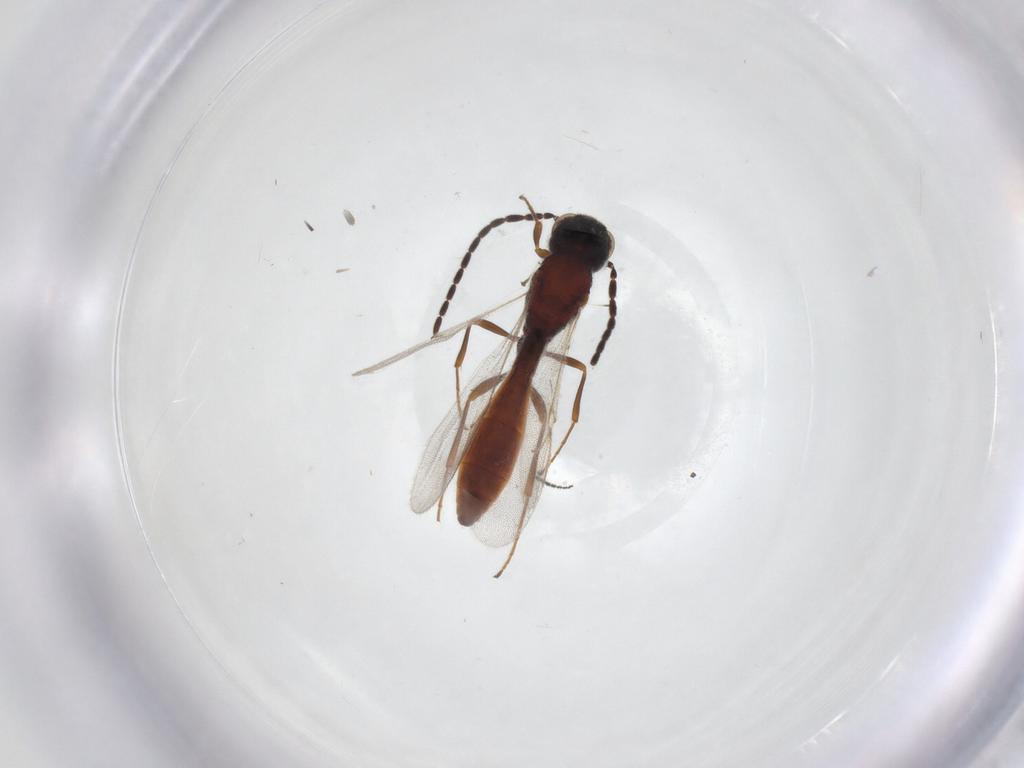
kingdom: Animalia
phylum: Arthropoda
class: Insecta
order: Hymenoptera
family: Scelionidae
